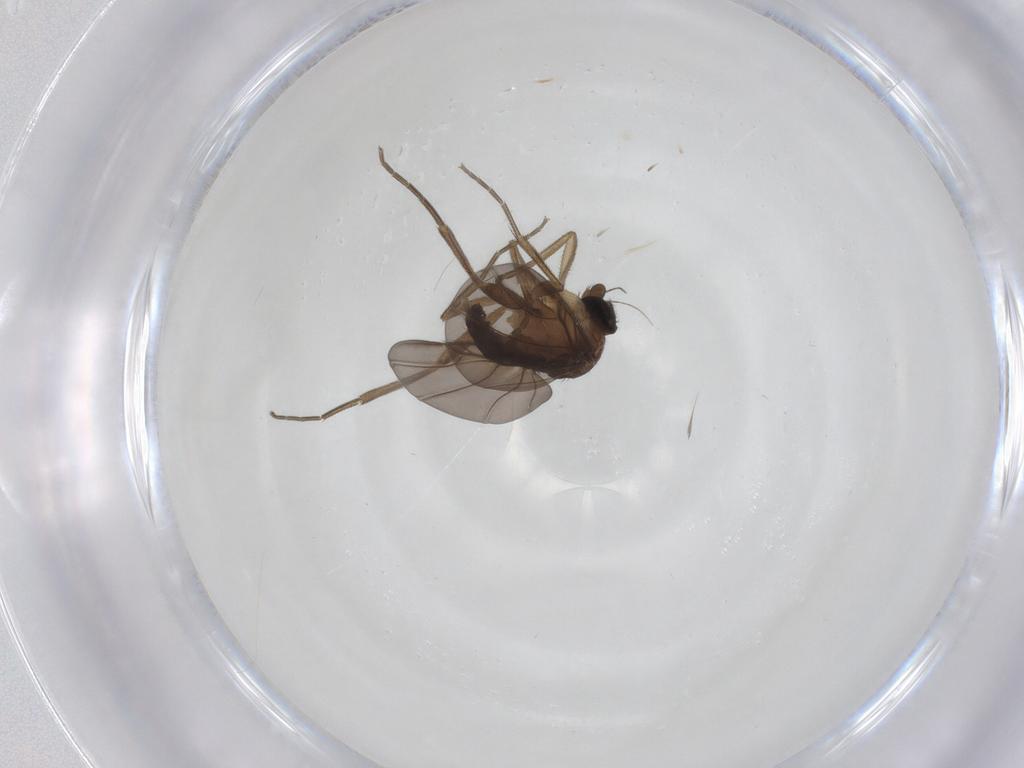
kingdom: Animalia
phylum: Arthropoda
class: Insecta
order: Diptera
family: Phoridae
